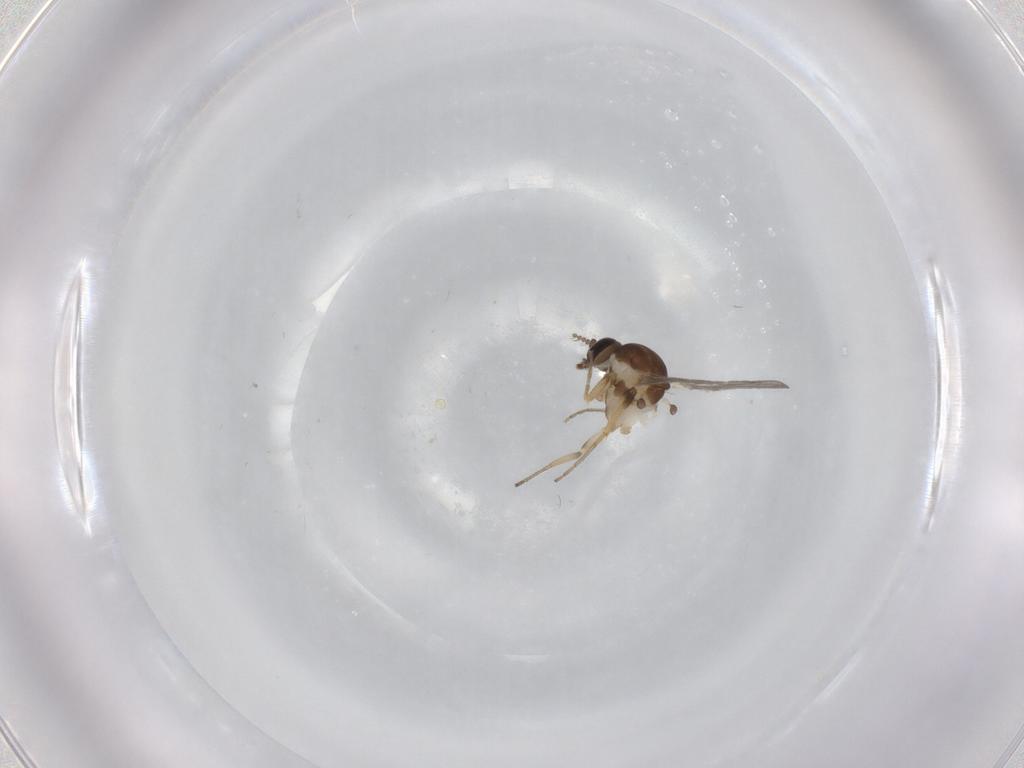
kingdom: Animalia
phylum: Arthropoda
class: Insecta
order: Diptera
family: Ceratopogonidae
